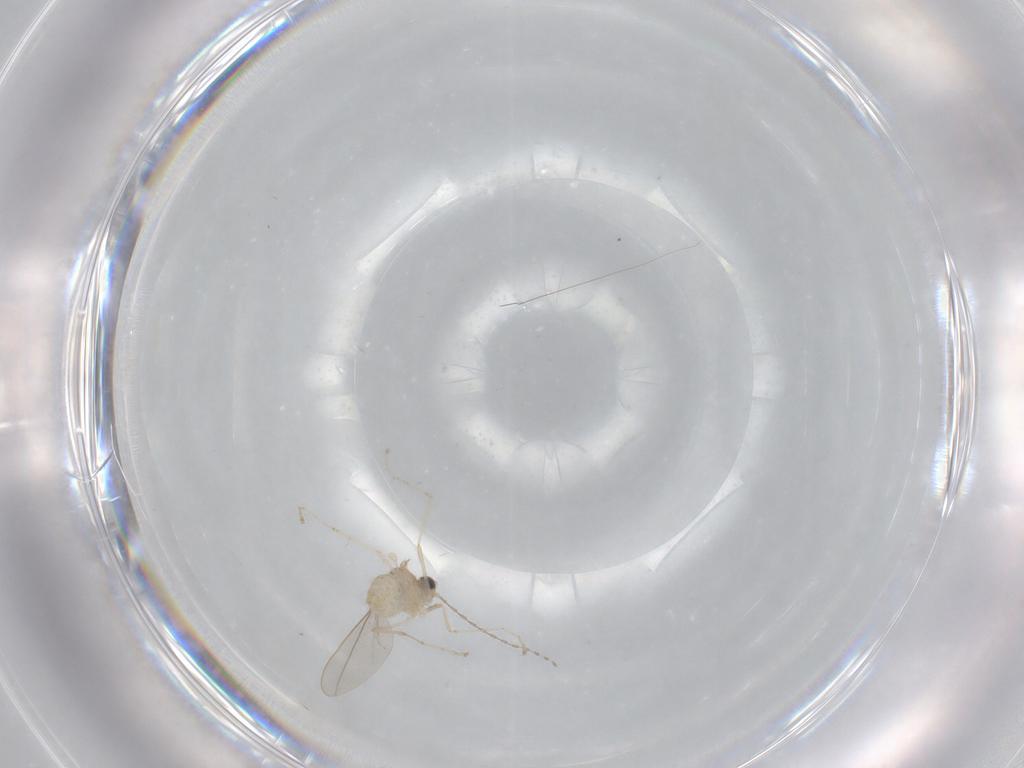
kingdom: Animalia
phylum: Arthropoda
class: Insecta
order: Diptera
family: Cecidomyiidae
